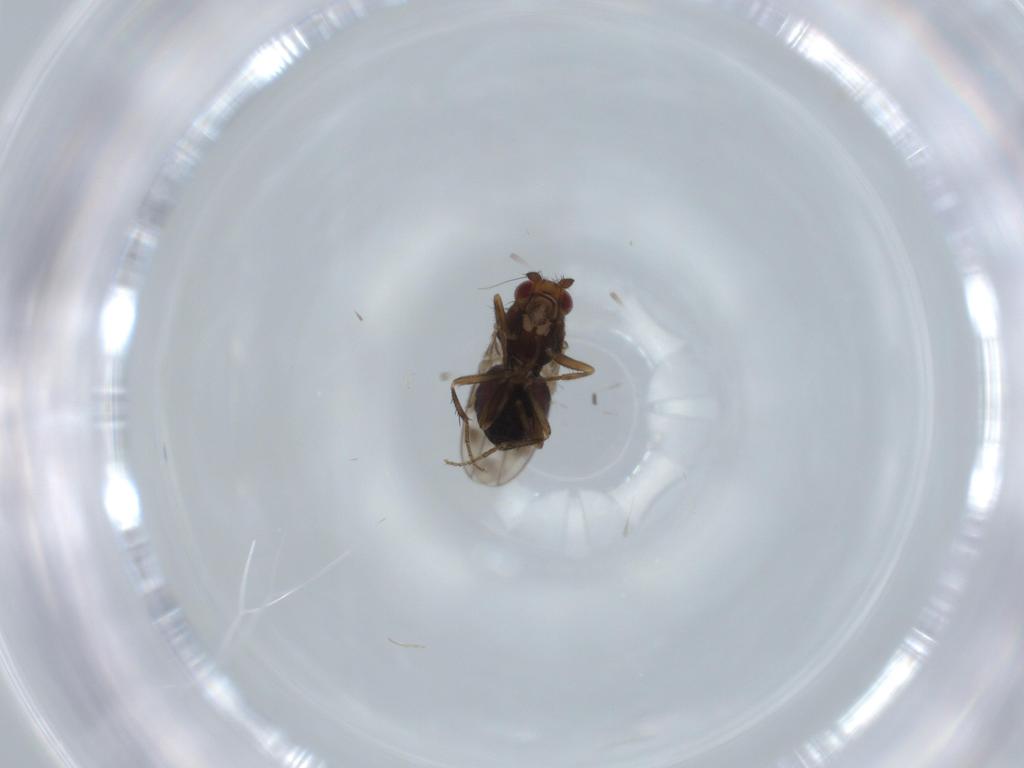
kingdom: Animalia
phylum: Arthropoda
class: Insecta
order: Diptera
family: Sphaeroceridae
